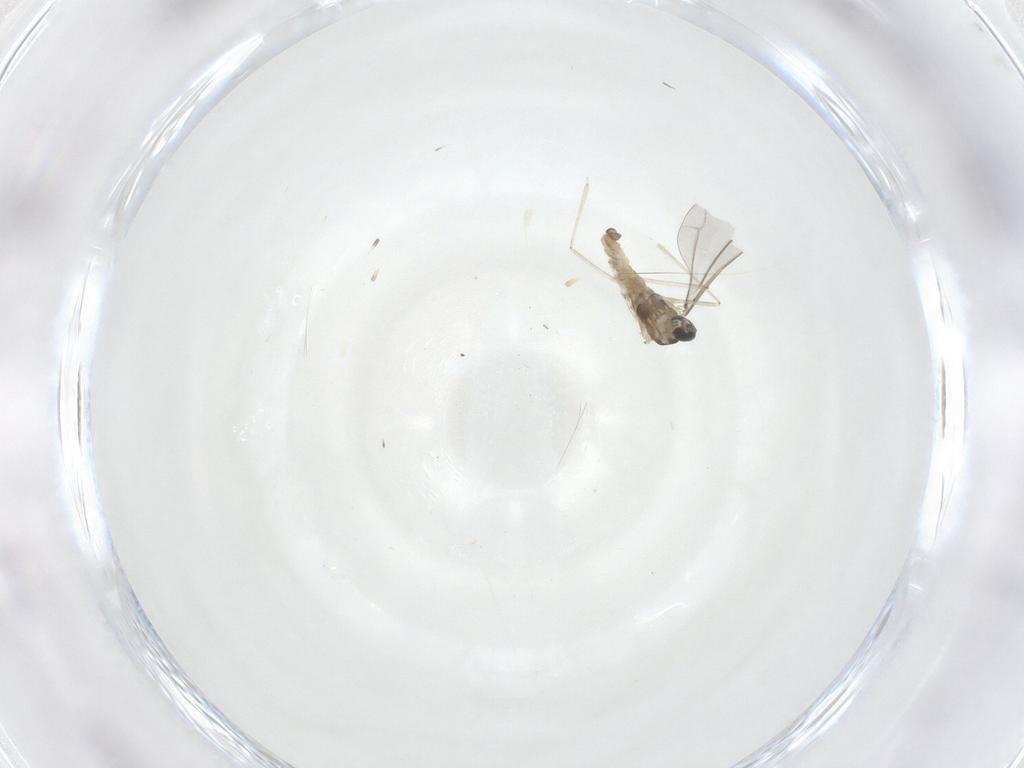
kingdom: Animalia
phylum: Arthropoda
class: Insecta
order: Diptera
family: Cecidomyiidae
